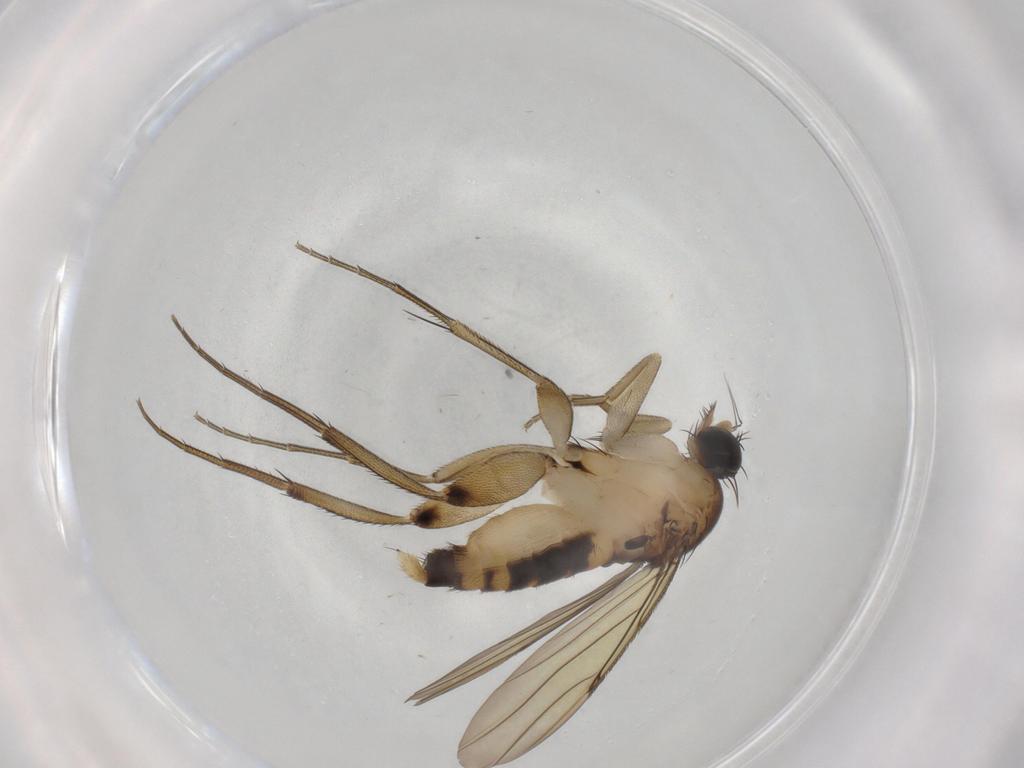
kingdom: Animalia
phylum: Arthropoda
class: Insecta
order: Diptera
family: Phoridae
